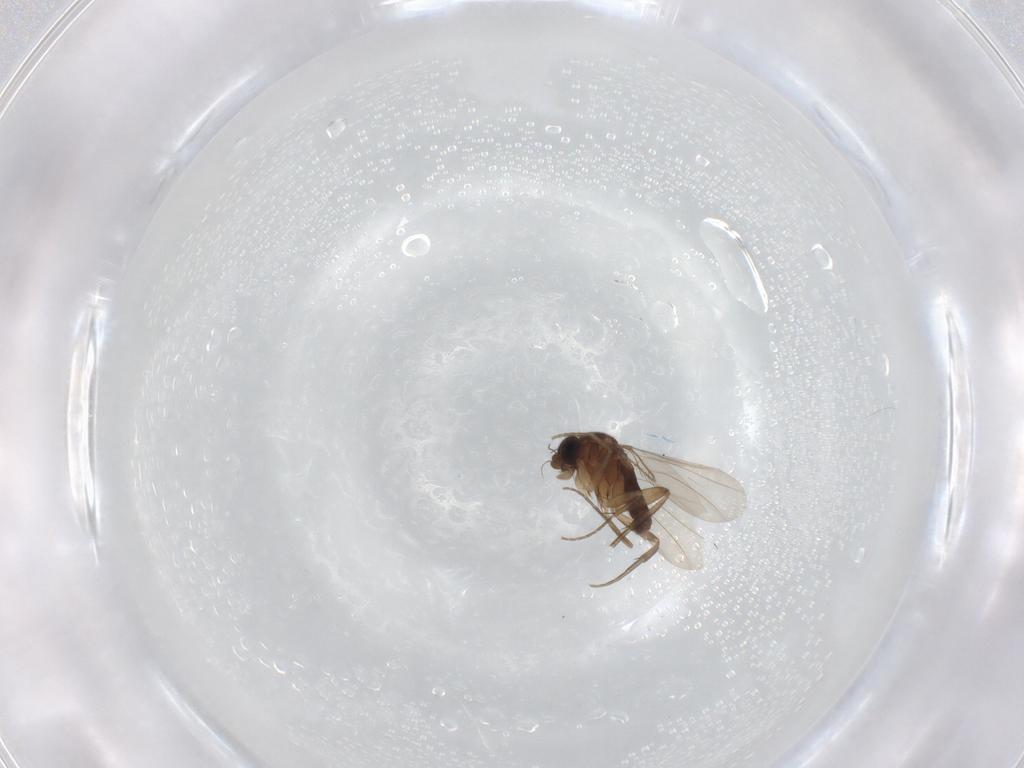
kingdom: Animalia
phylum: Arthropoda
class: Insecta
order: Diptera
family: Phoridae
